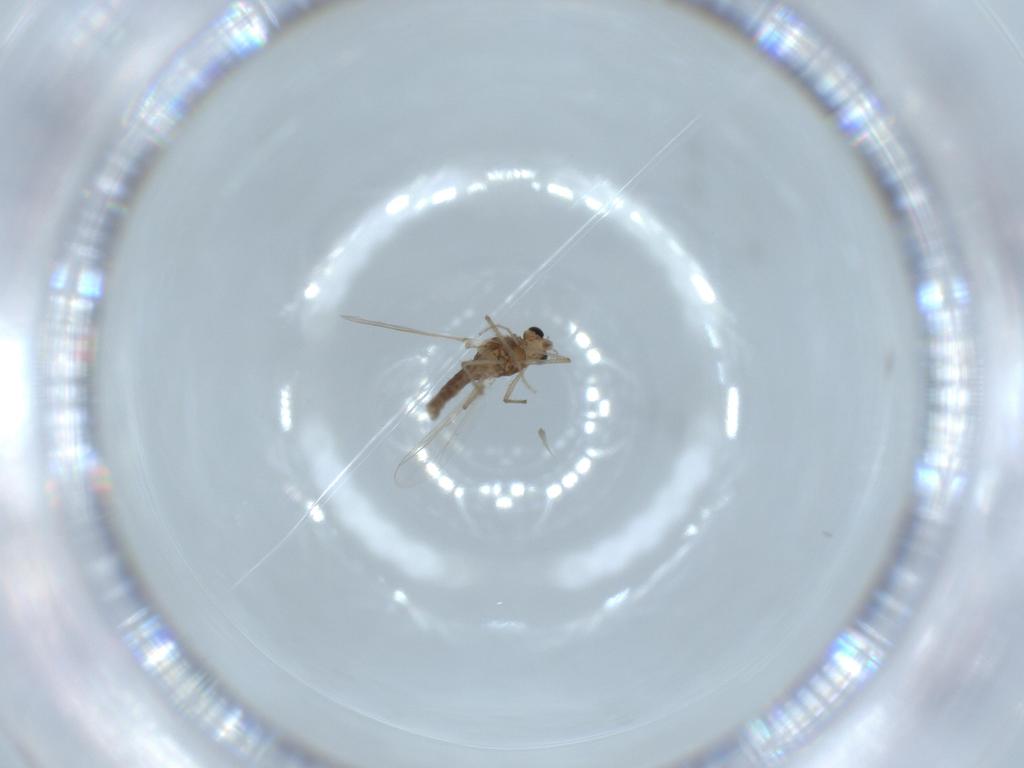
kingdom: Animalia
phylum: Arthropoda
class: Insecta
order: Diptera
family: Chironomidae
